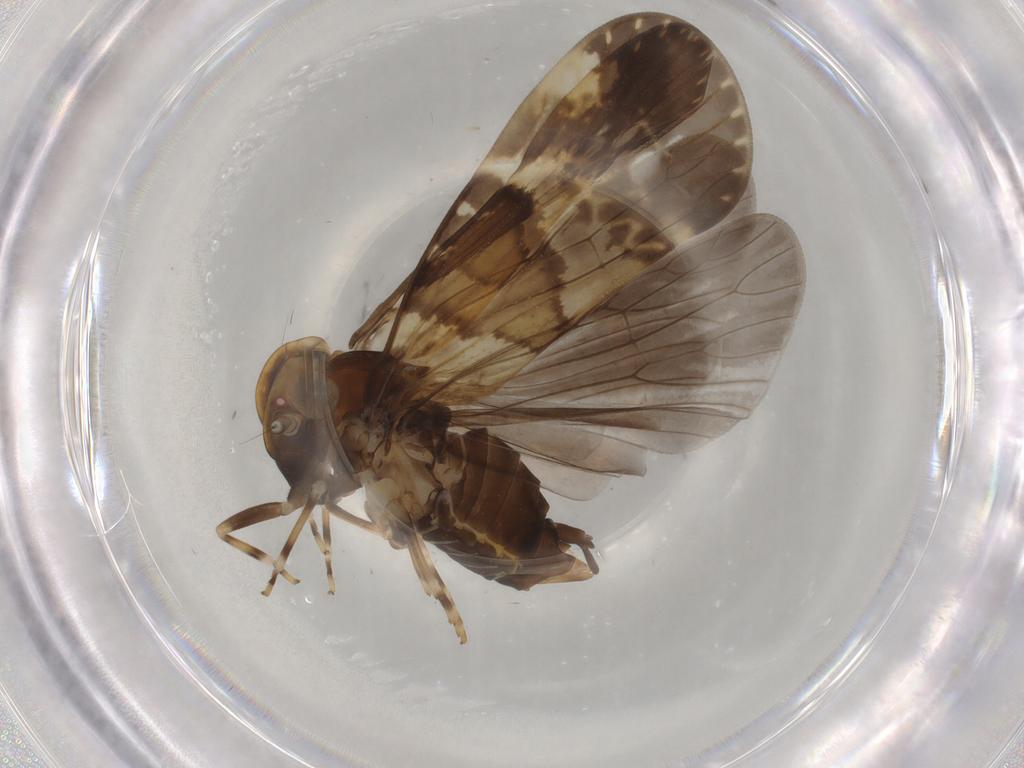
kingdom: Animalia
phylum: Arthropoda
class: Insecta
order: Hemiptera
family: Cixiidae
